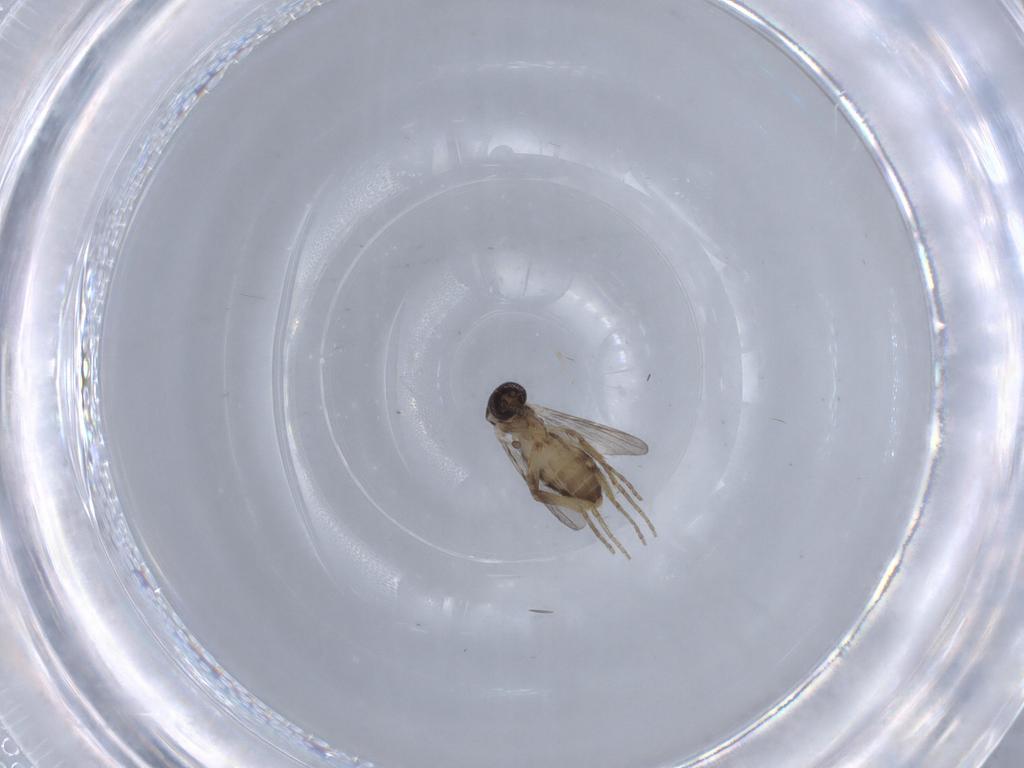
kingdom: Animalia
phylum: Arthropoda
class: Insecta
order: Diptera
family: Ceratopogonidae
